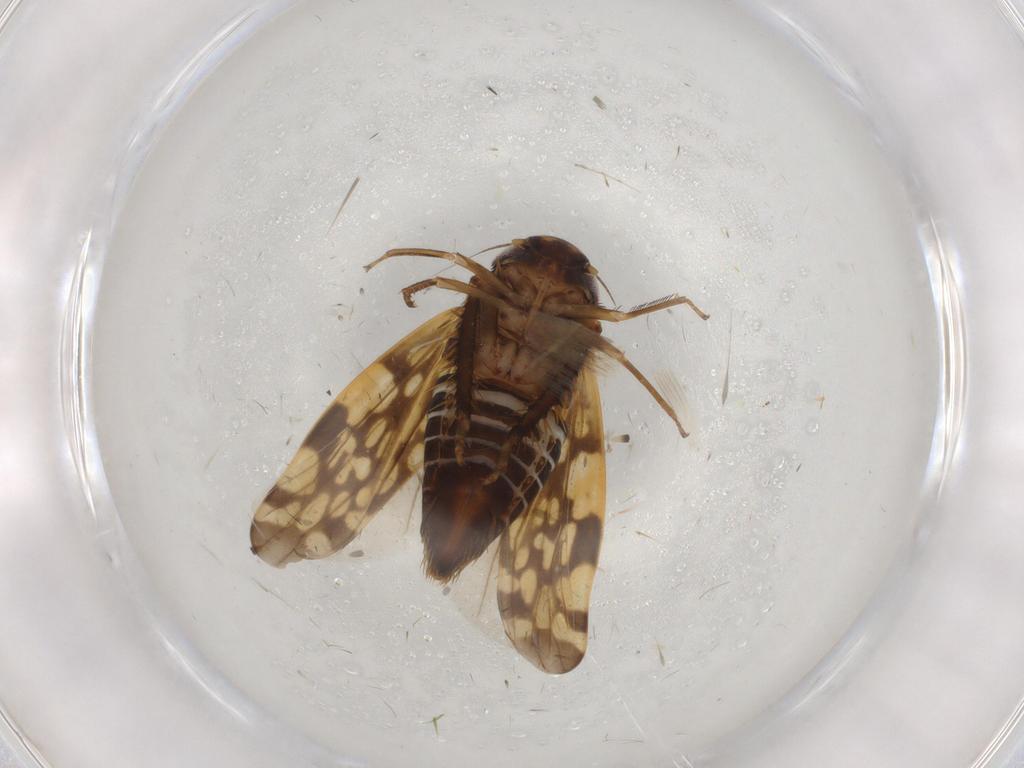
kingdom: Animalia
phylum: Arthropoda
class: Insecta
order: Hemiptera
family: Cicadellidae
